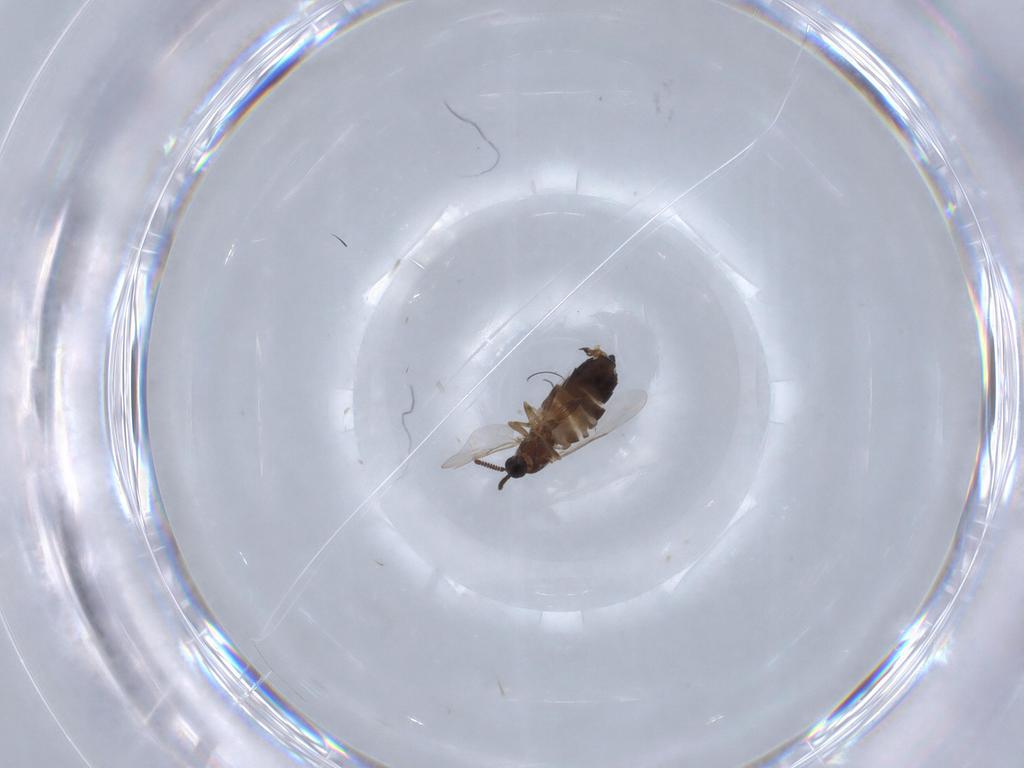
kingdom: Animalia
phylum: Arthropoda
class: Insecta
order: Diptera
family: Scatopsidae
